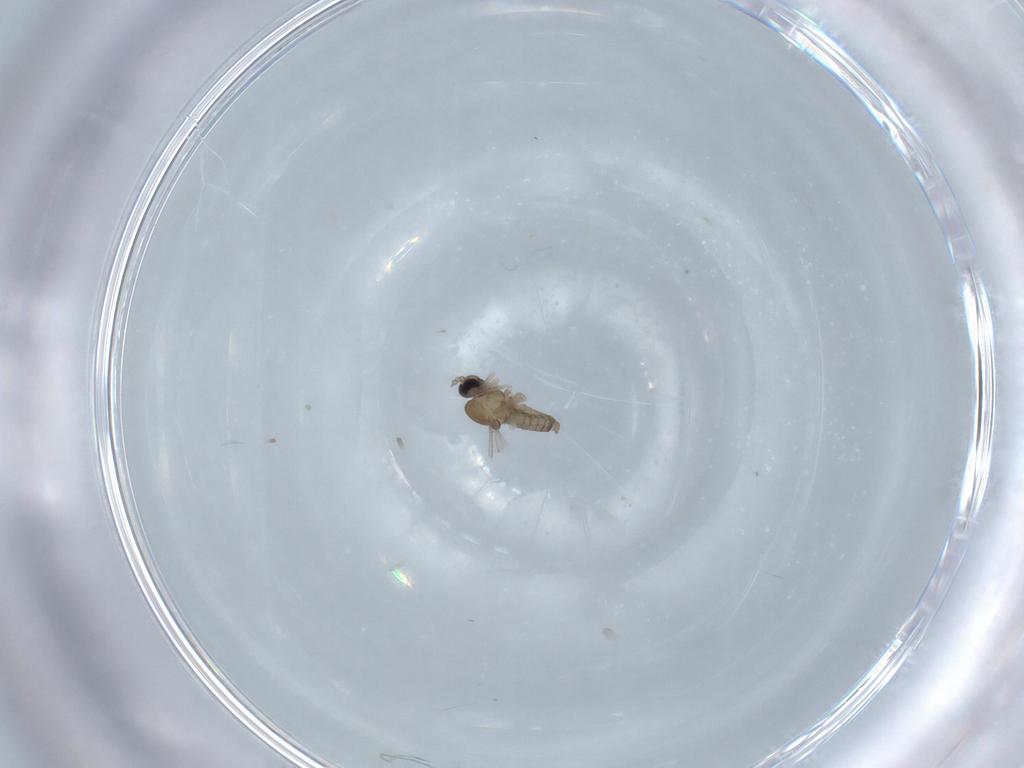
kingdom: Animalia
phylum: Arthropoda
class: Insecta
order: Diptera
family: Cecidomyiidae
